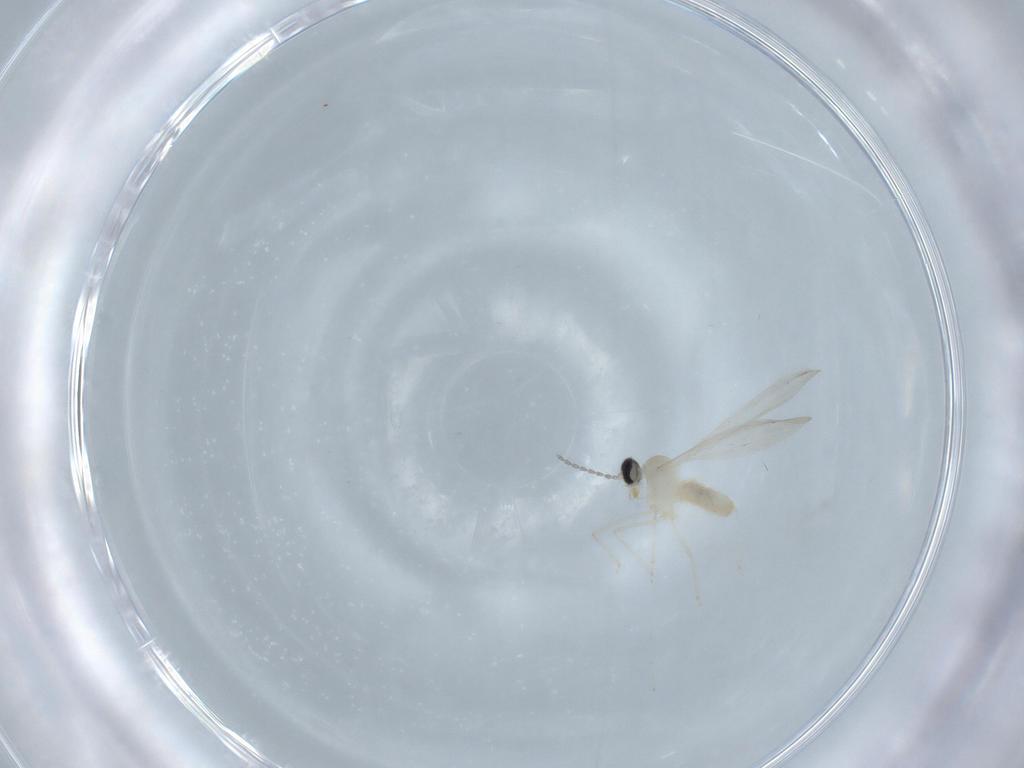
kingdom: Animalia
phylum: Arthropoda
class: Insecta
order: Diptera
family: Cecidomyiidae
